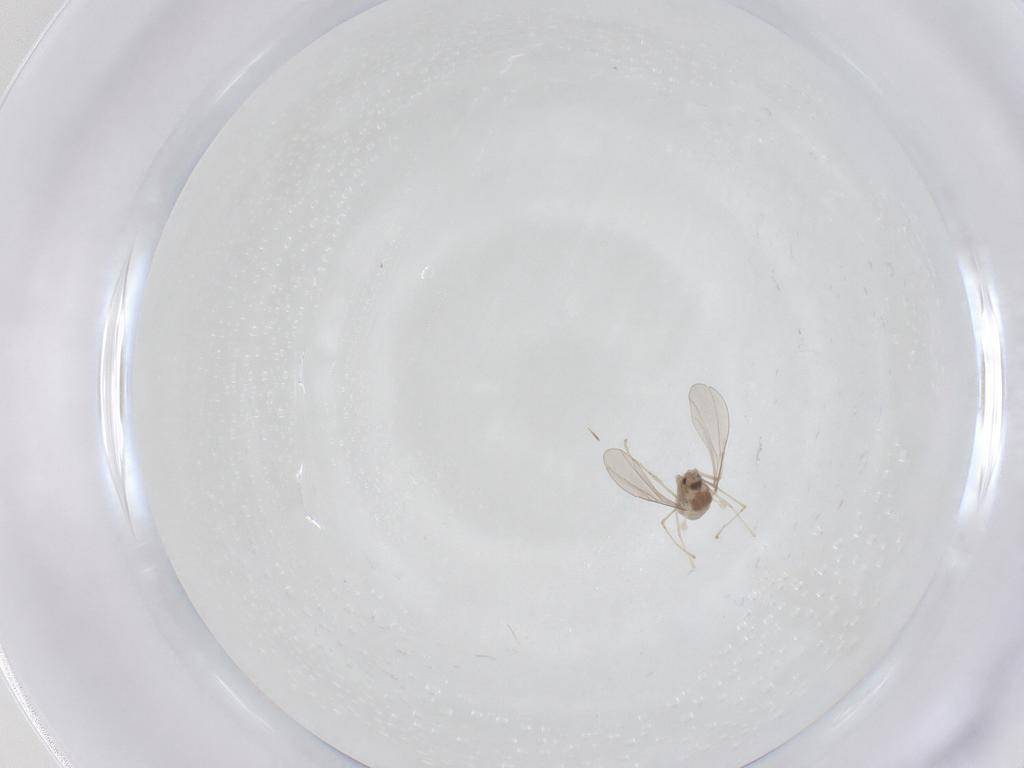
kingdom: Animalia
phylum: Arthropoda
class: Insecta
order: Diptera
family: Cecidomyiidae
